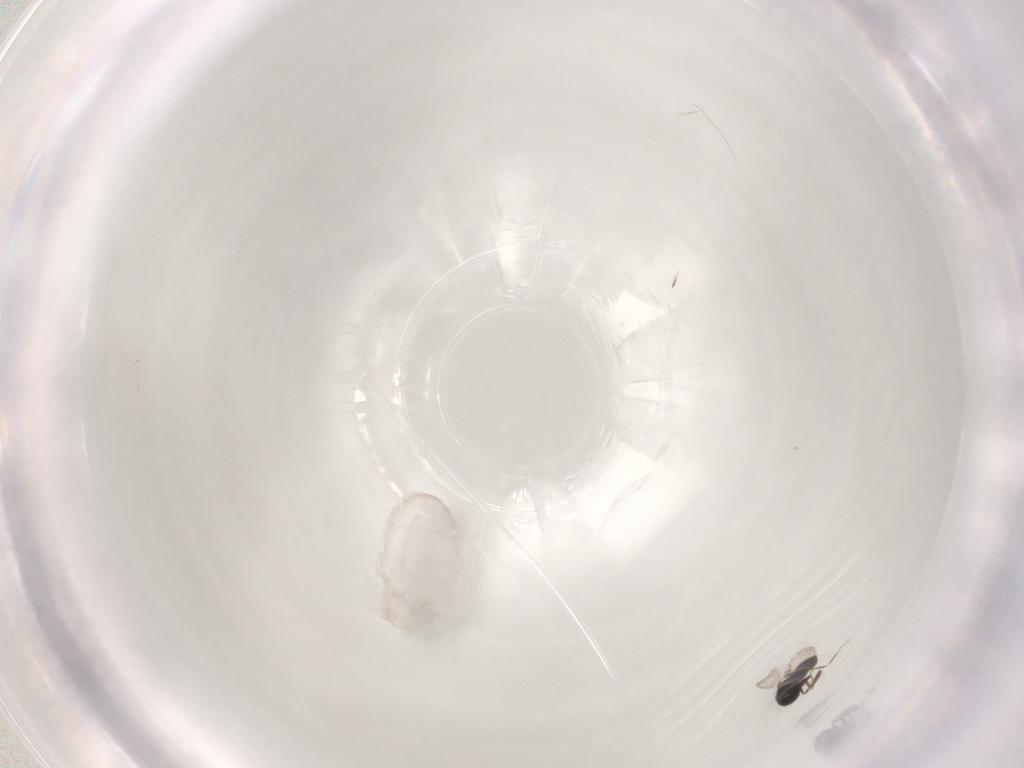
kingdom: Animalia
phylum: Arthropoda
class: Insecta
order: Hymenoptera
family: Scelionidae
